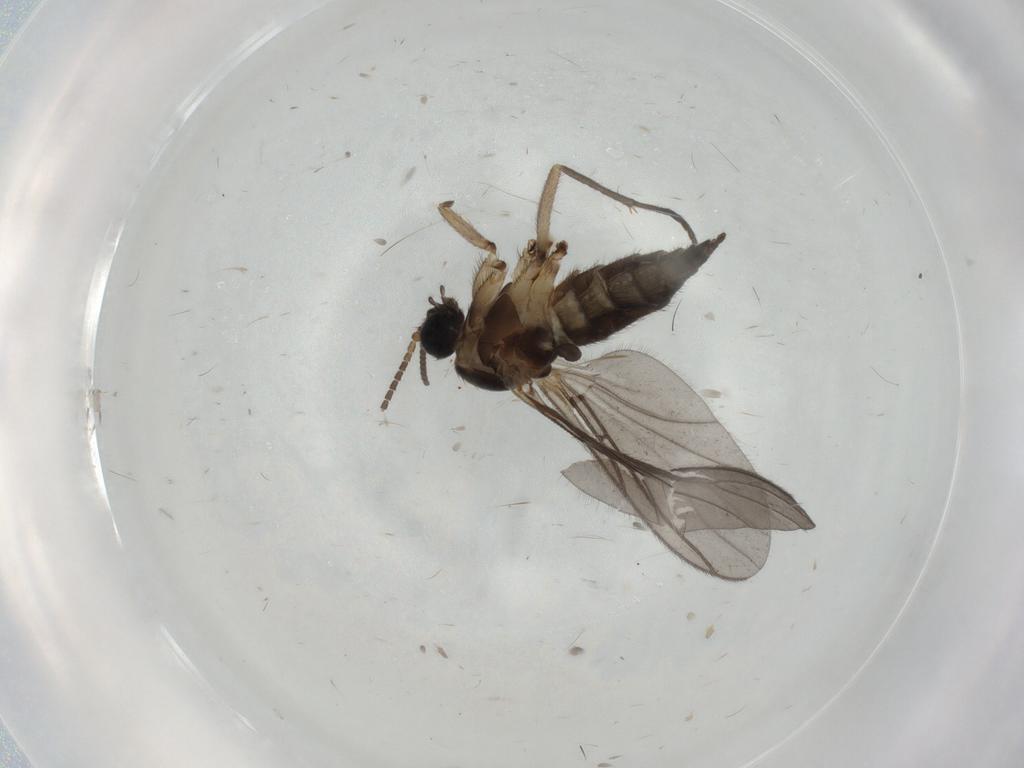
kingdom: Animalia
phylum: Arthropoda
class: Insecta
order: Diptera
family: Sciaridae
